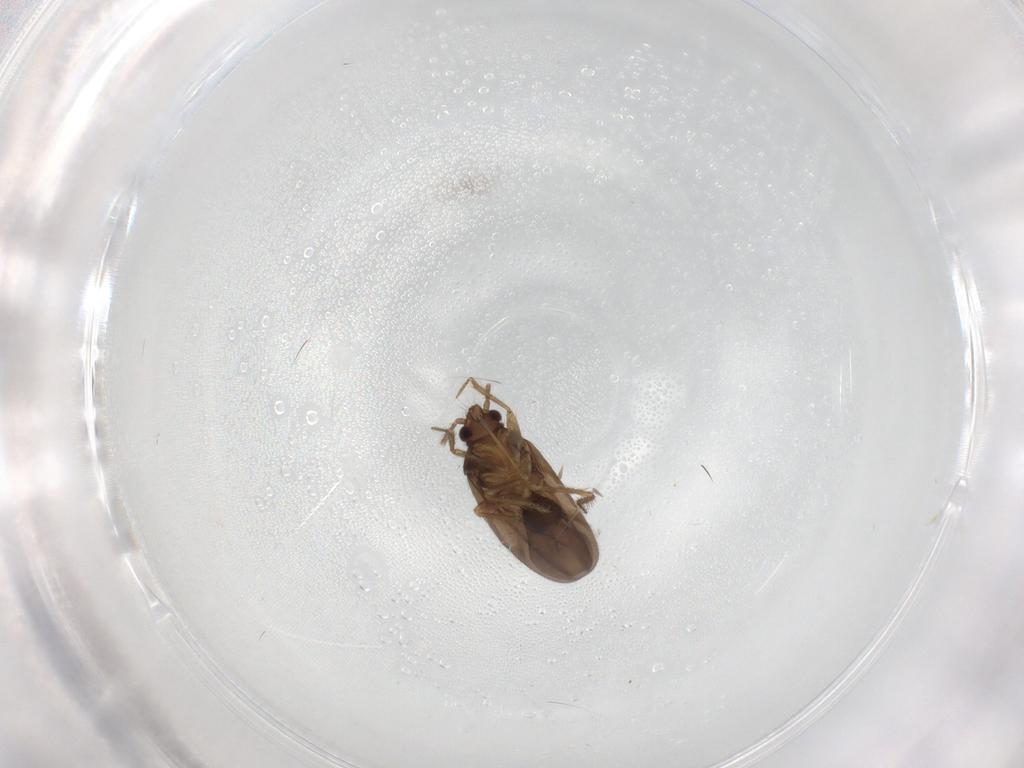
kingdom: Animalia
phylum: Arthropoda
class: Insecta
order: Hemiptera
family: Ceratocombidae
